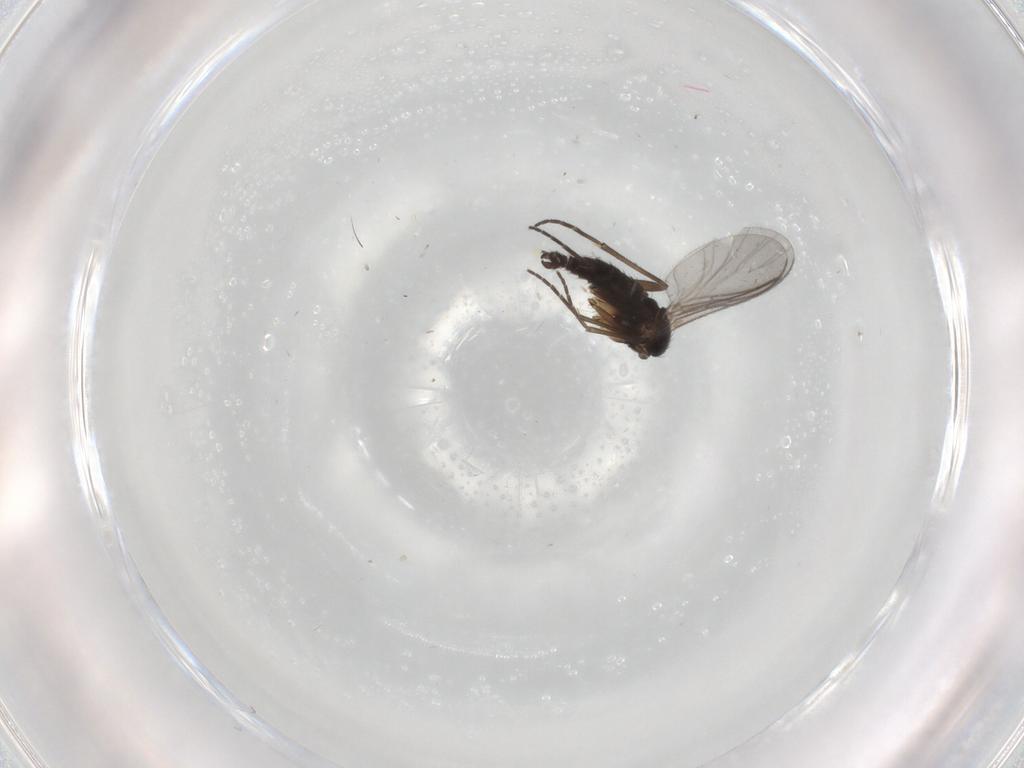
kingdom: Animalia
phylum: Arthropoda
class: Insecta
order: Diptera
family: Sciaridae
